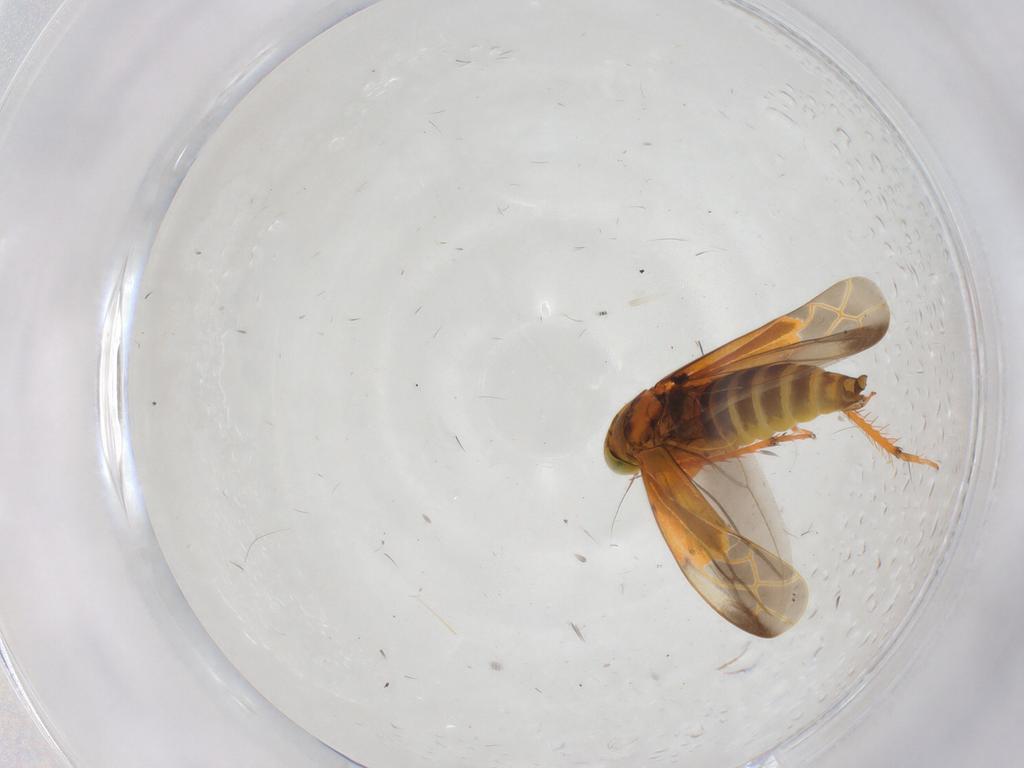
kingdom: Animalia
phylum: Arthropoda
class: Insecta
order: Hemiptera
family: Cicadellidae
